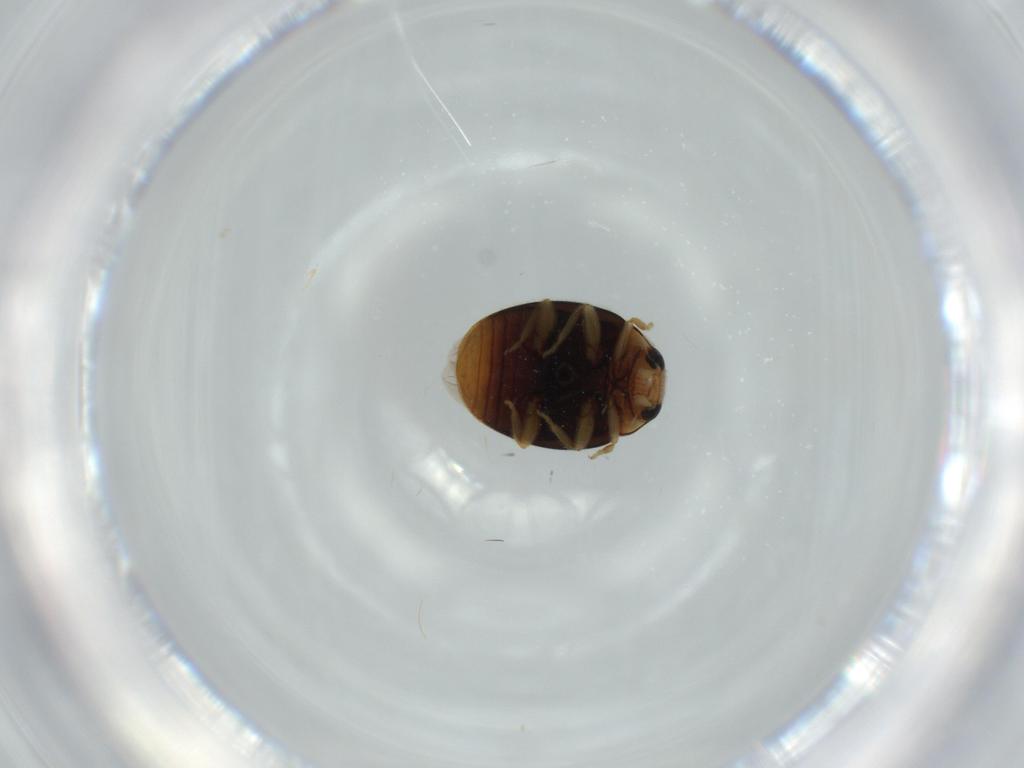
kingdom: Animalia
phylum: Arthropoda
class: Insecta
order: Coleoptera
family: Bostrichidae
